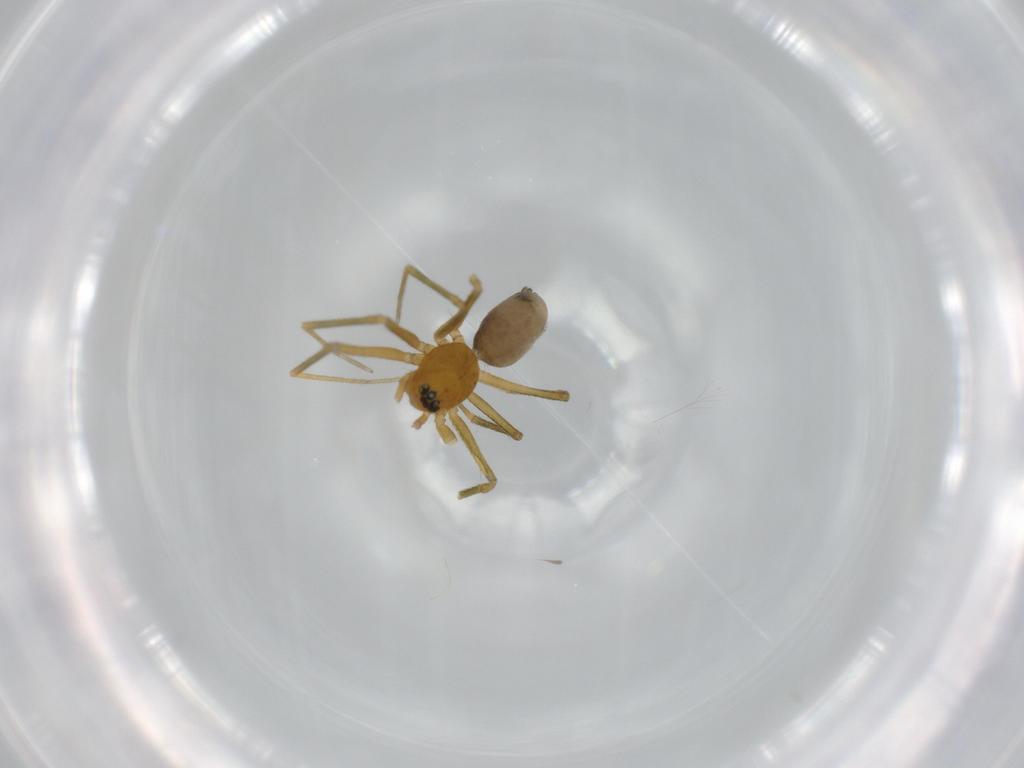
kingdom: Animalia
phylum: Arthropoda
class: Arachnida
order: Araneae
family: Linyphiidae
